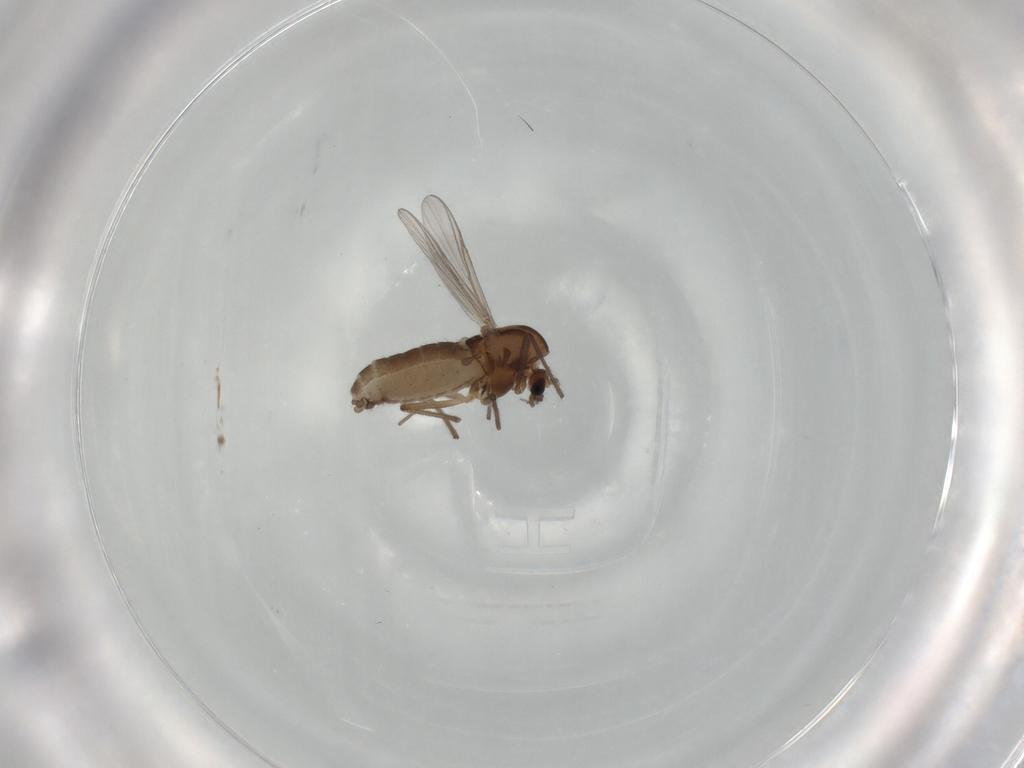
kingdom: Animalia
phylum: Arthropoda
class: Insecta
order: Diptera
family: Chironomidae
